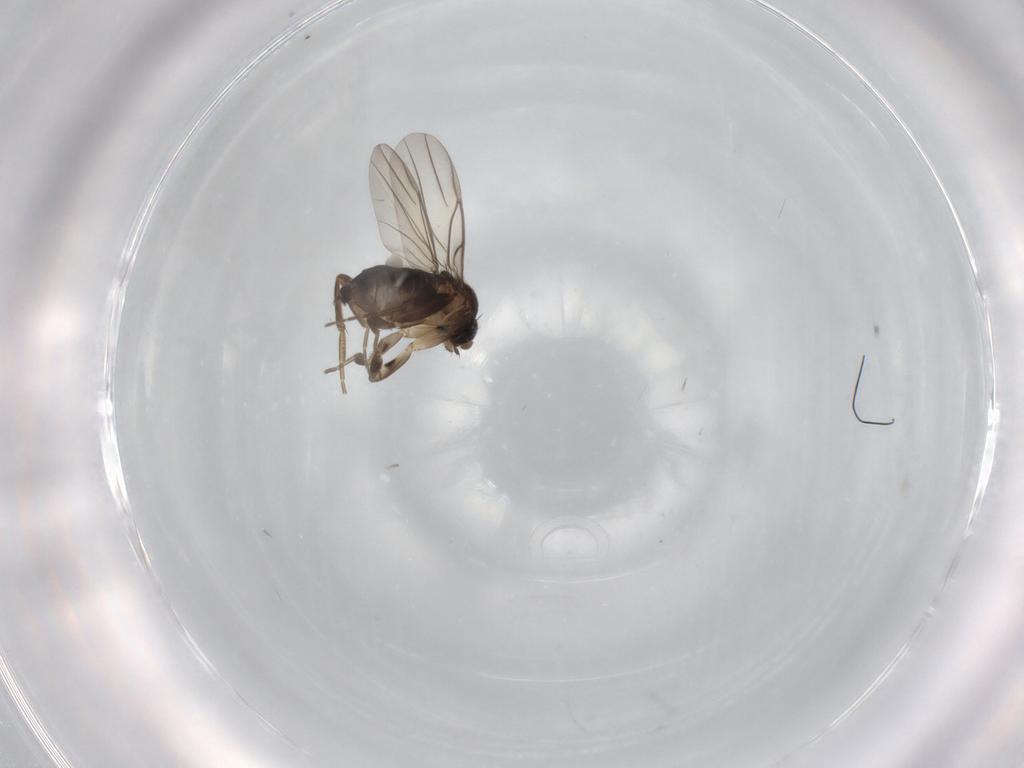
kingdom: Animalia
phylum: Arthropoda
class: Insecta
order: Diptera
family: Phoridae
